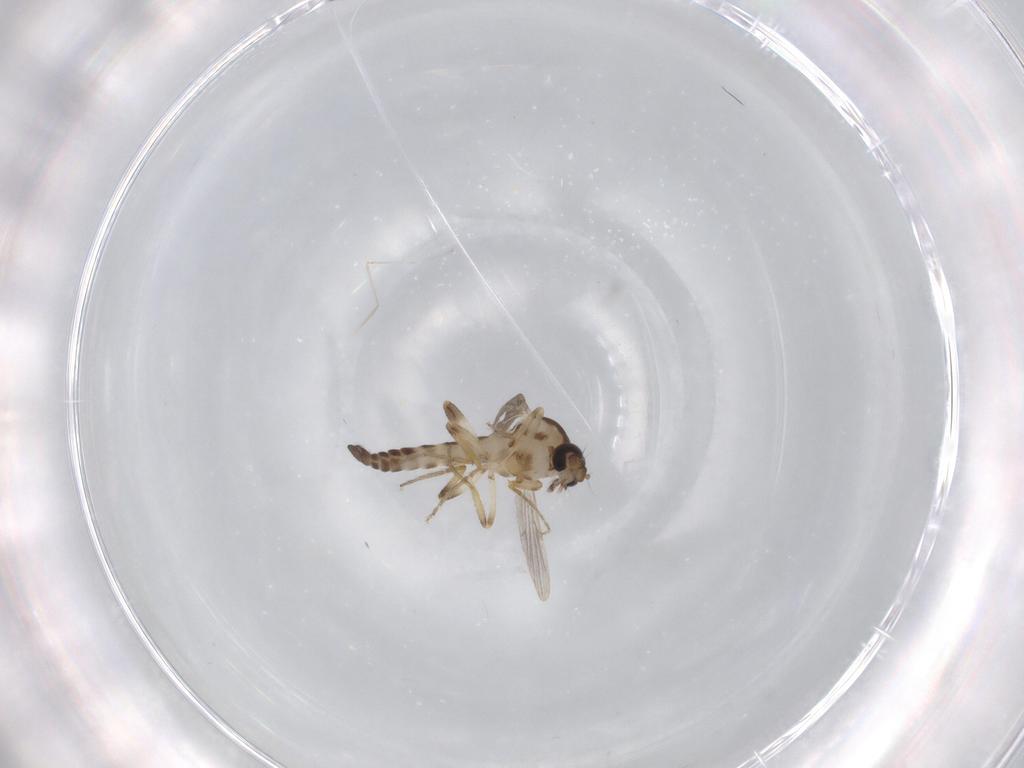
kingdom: Animalia
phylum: Arthropoda
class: Insecta
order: Diptera
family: Ceratopogonidae
